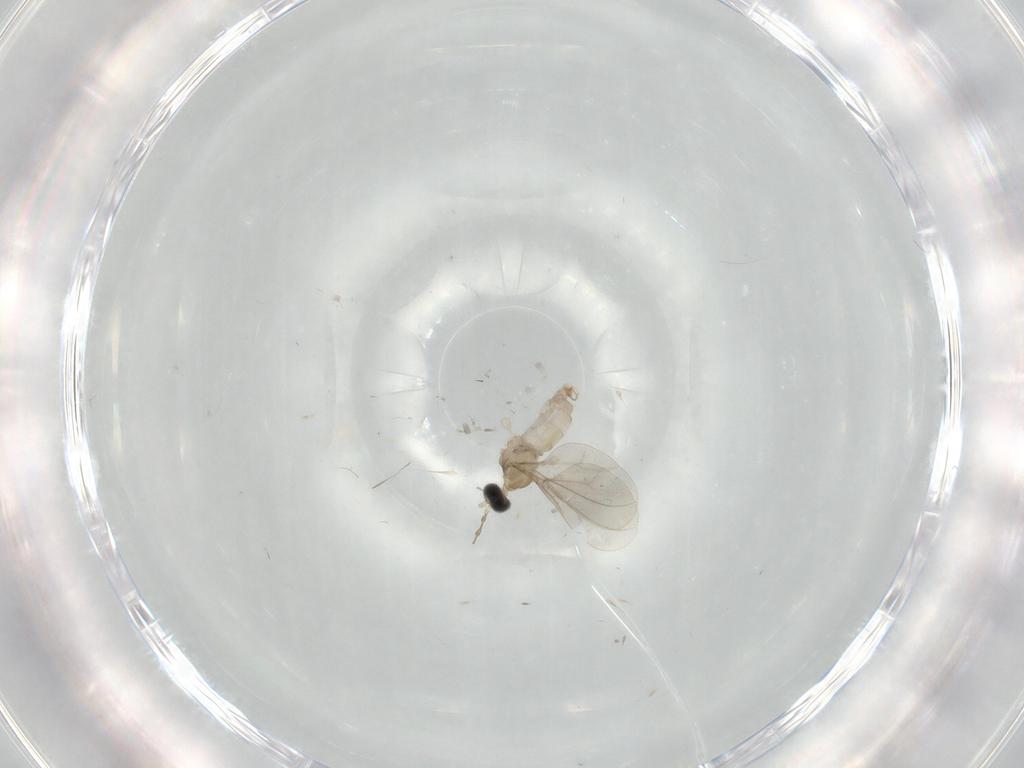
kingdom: Animalia
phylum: Arthropoda
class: Insecta
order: Diptera
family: Cecidomyiidae
